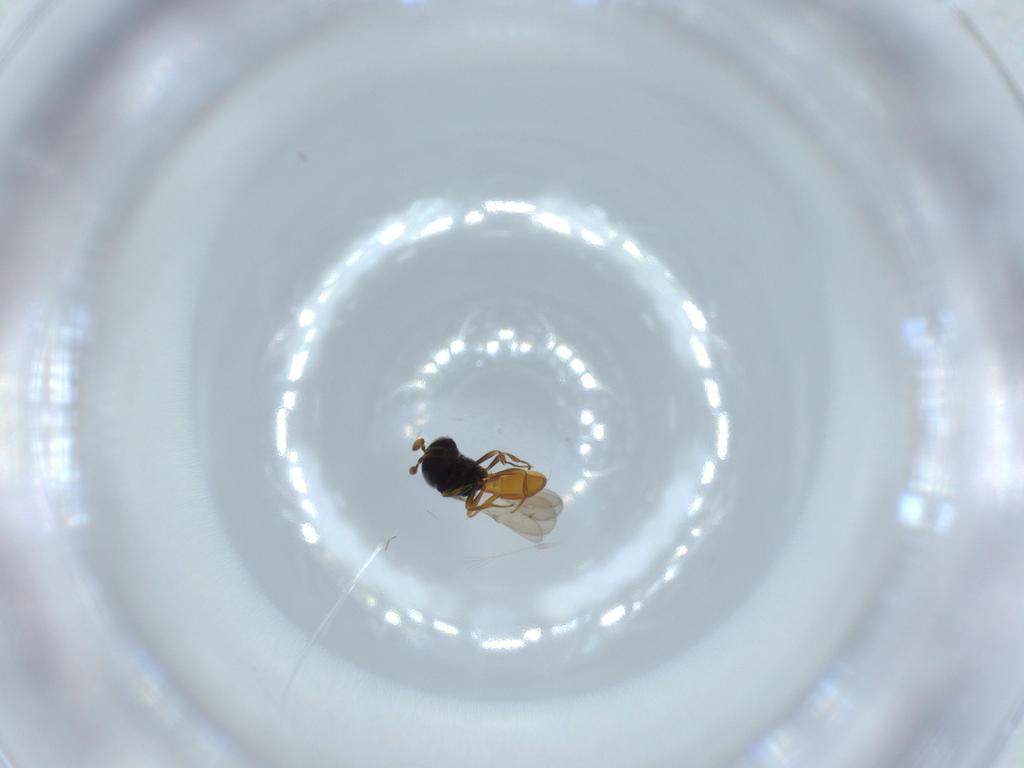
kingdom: Animalia
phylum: Arthropoda
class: Insecta
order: Hymenoptera
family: Scelionidae
